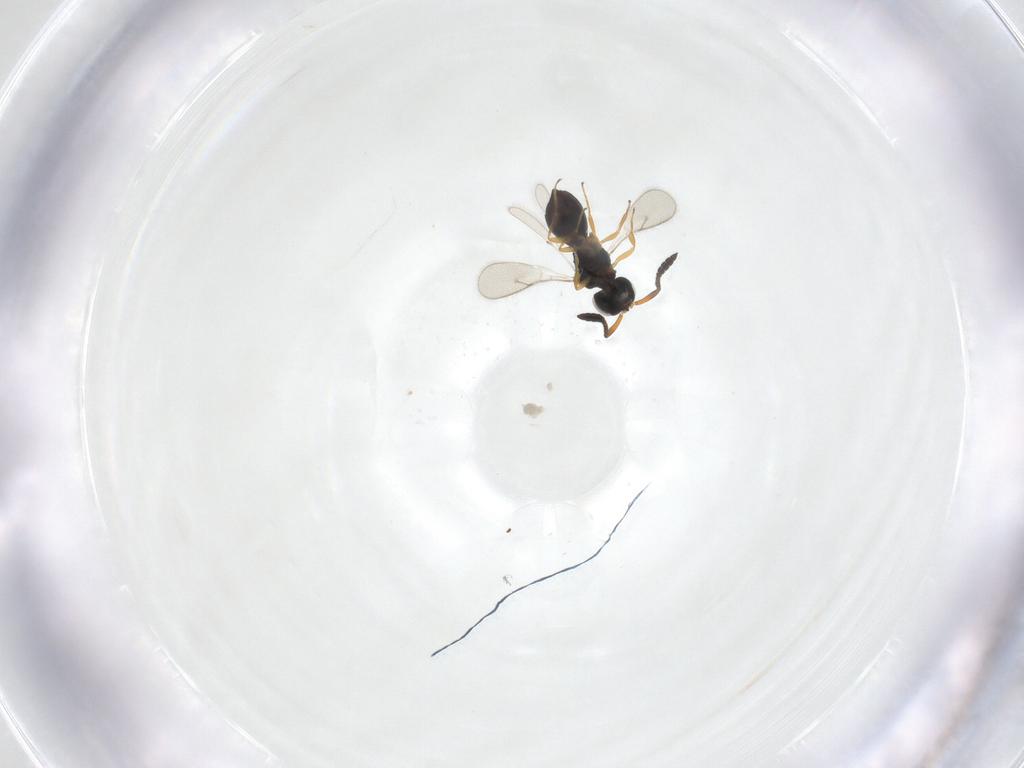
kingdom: Animalia
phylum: Arthropoda
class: Insecta
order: Hymenoptera
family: Scelionidae
